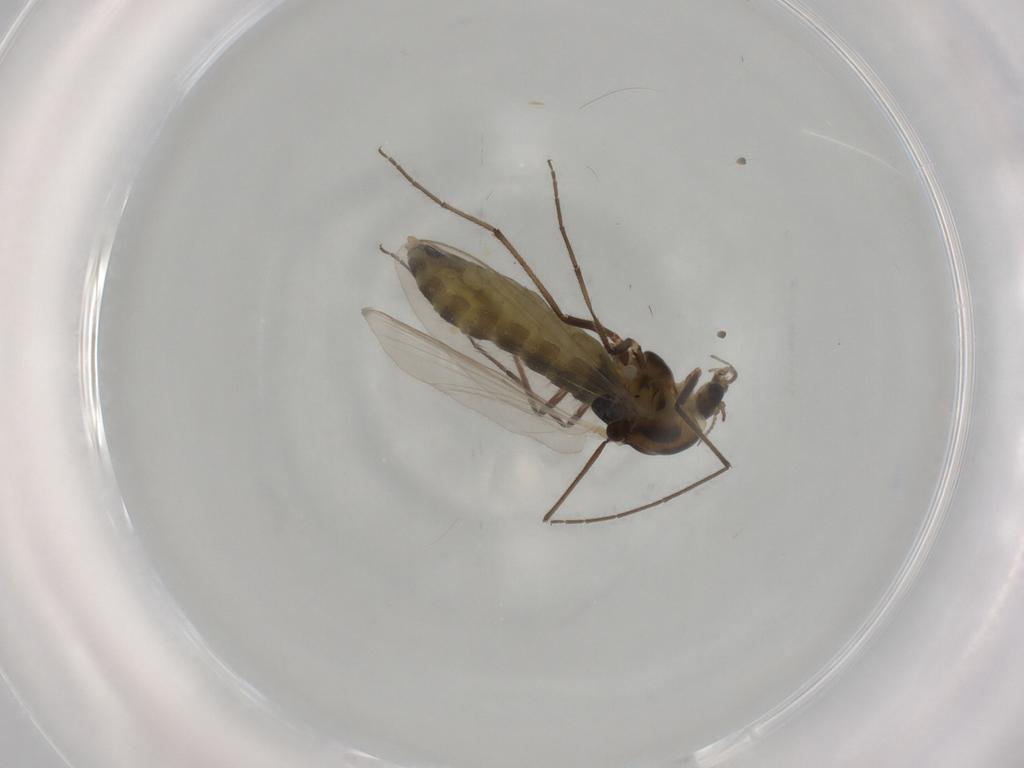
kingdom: Animalia
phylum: Arthropoda
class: Insecta
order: Diptera
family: Chironomidae
